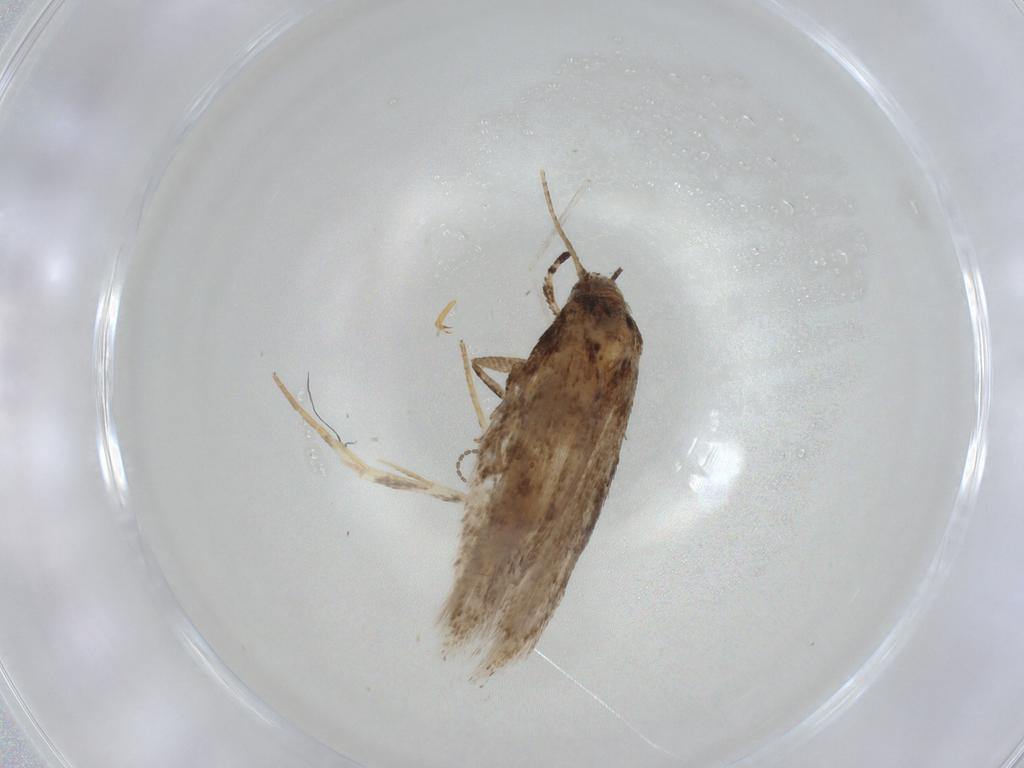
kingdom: Animalia
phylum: Arthropoda
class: Insecta
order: Lepidoptera
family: Gelechiidae
